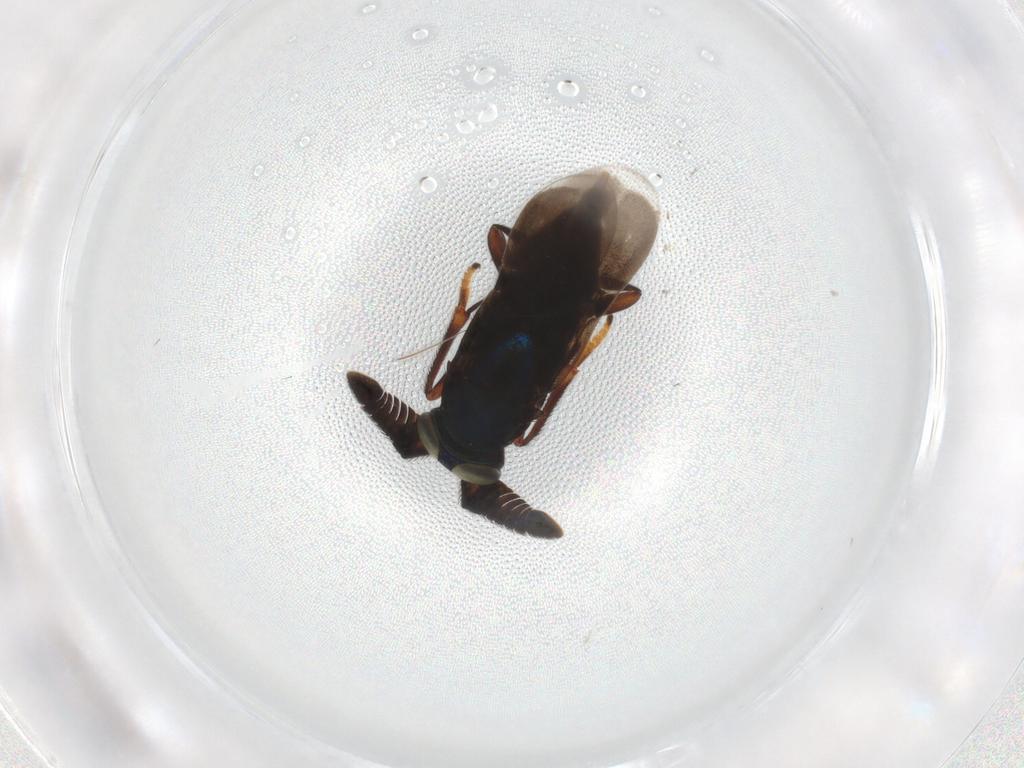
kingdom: Animalia
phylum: Arthropoda
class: Insecta
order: Hymenoptera
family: Encyrtidae
